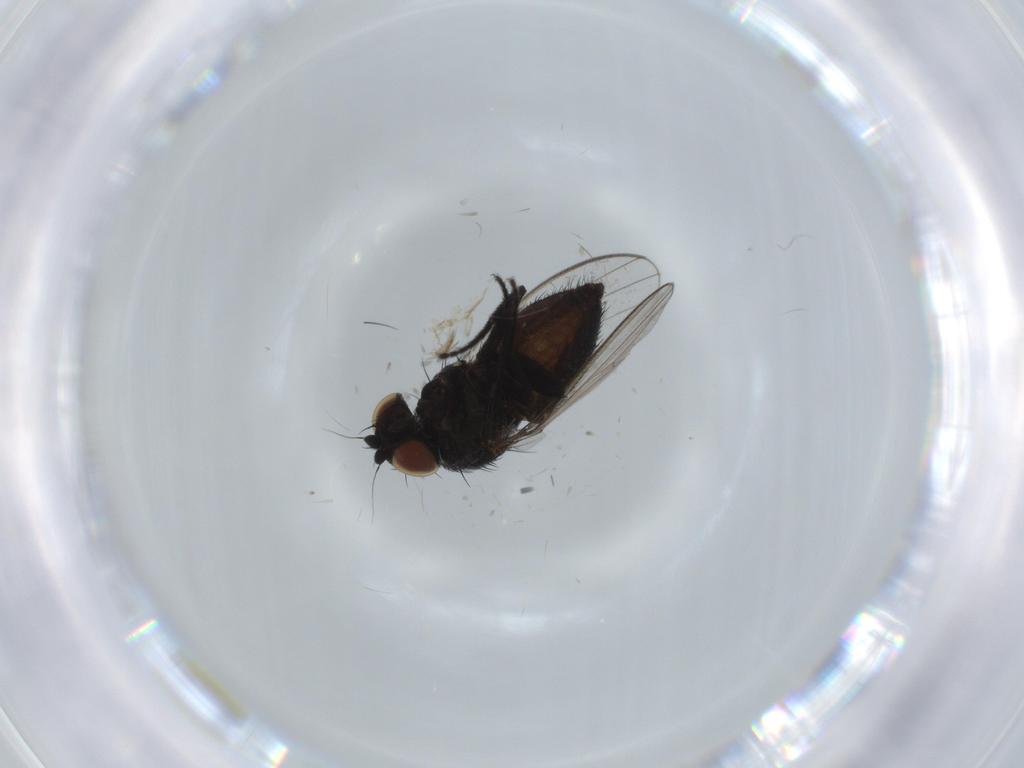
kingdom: Animalia
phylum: Arthropoda
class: Insecta
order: Diptera
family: Milichiidae
